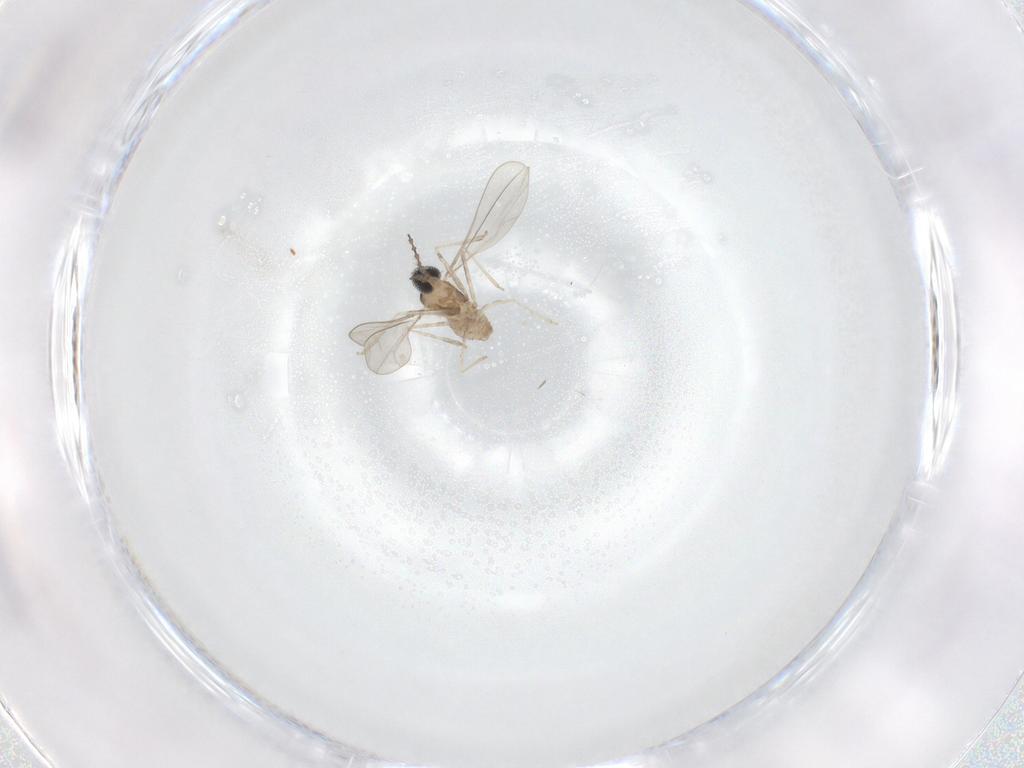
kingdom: Animalia
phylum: Arthropoda
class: Insecta
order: Diptera
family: Cecidomyiidae
